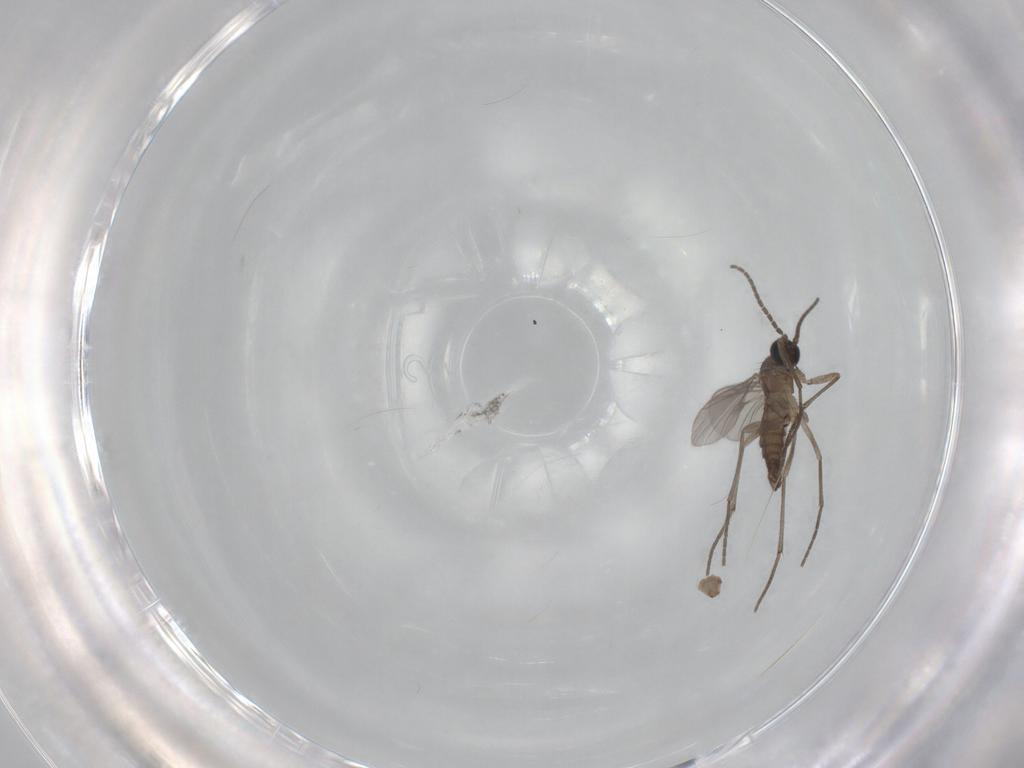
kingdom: Animalia
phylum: Arthropoda
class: Insecta
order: Diptera
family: Sciaridae
